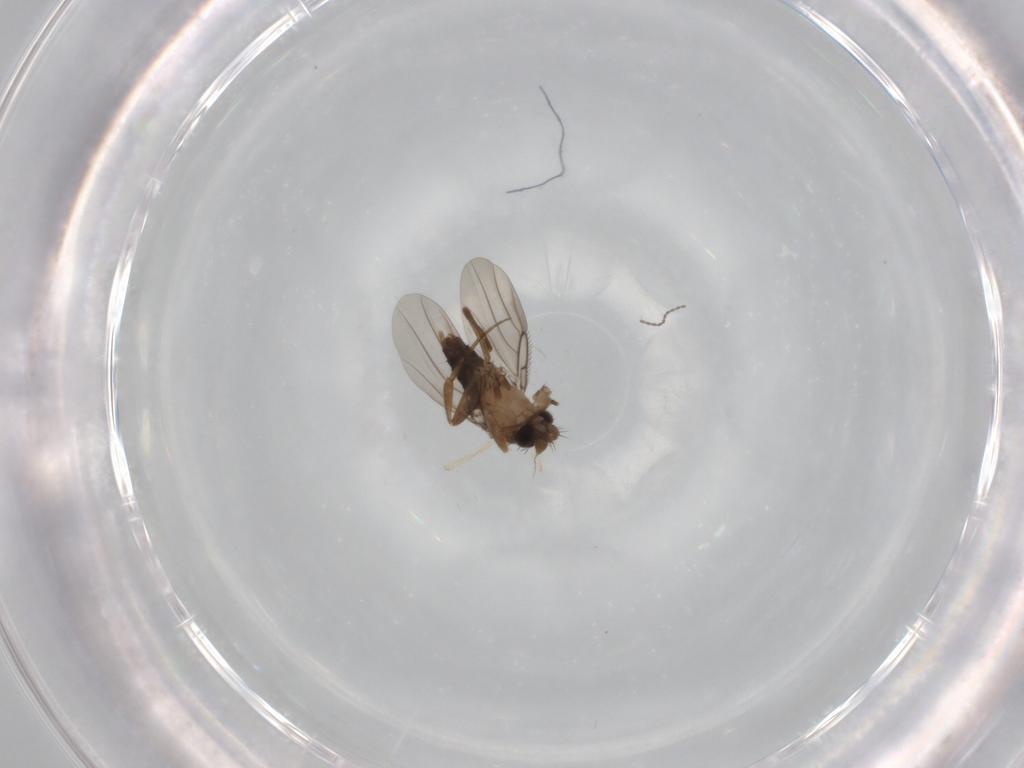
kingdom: Animalia
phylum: Arthropoda
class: Insecta
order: Diptera
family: Phoridae
